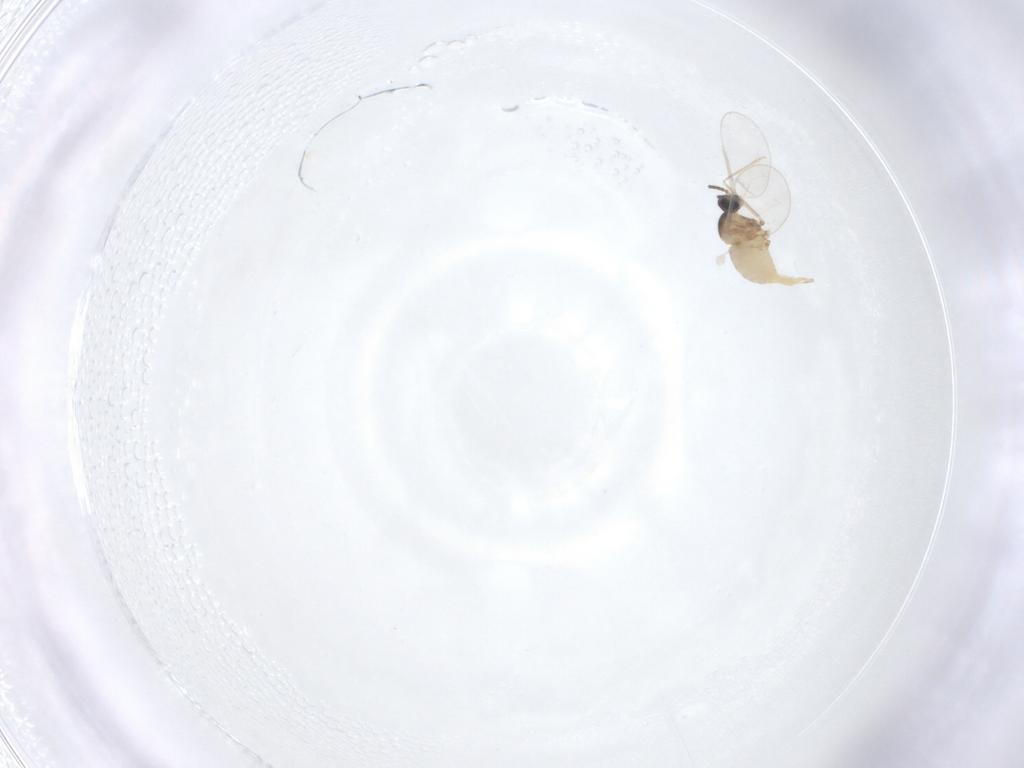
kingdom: Animalia
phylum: Arthropoda
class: Insecta
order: Diptera
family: Cecidomyiidae
